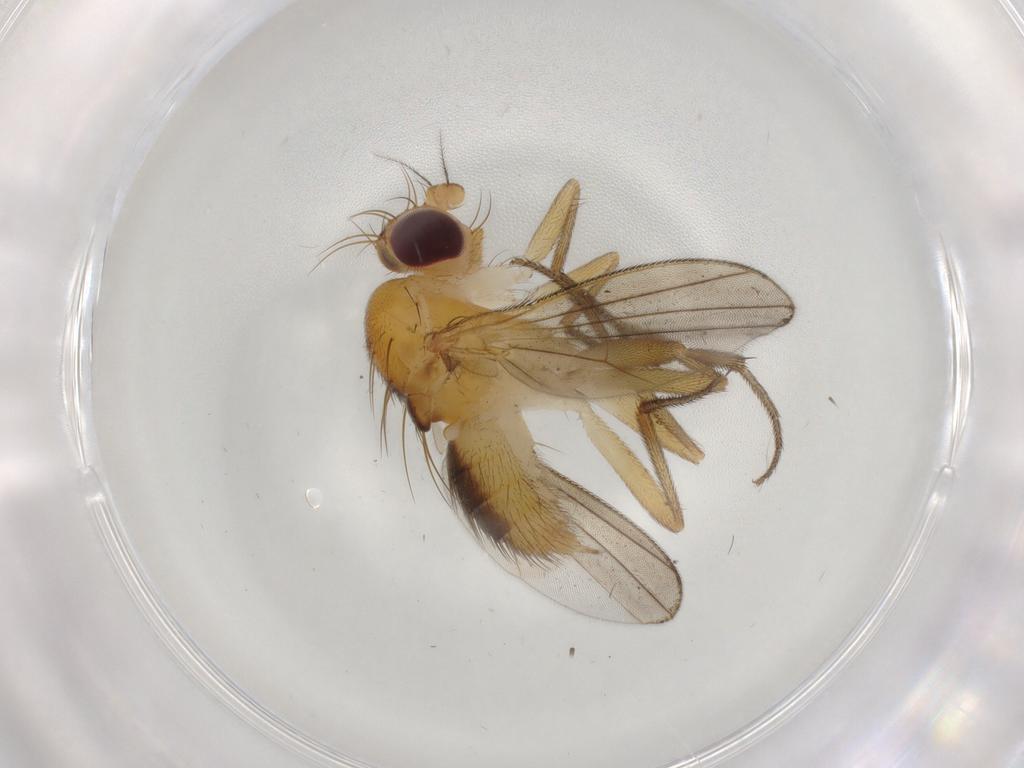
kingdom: Animalia
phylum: Arthropoda
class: Insecta
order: Diptera
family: Clusiidae
